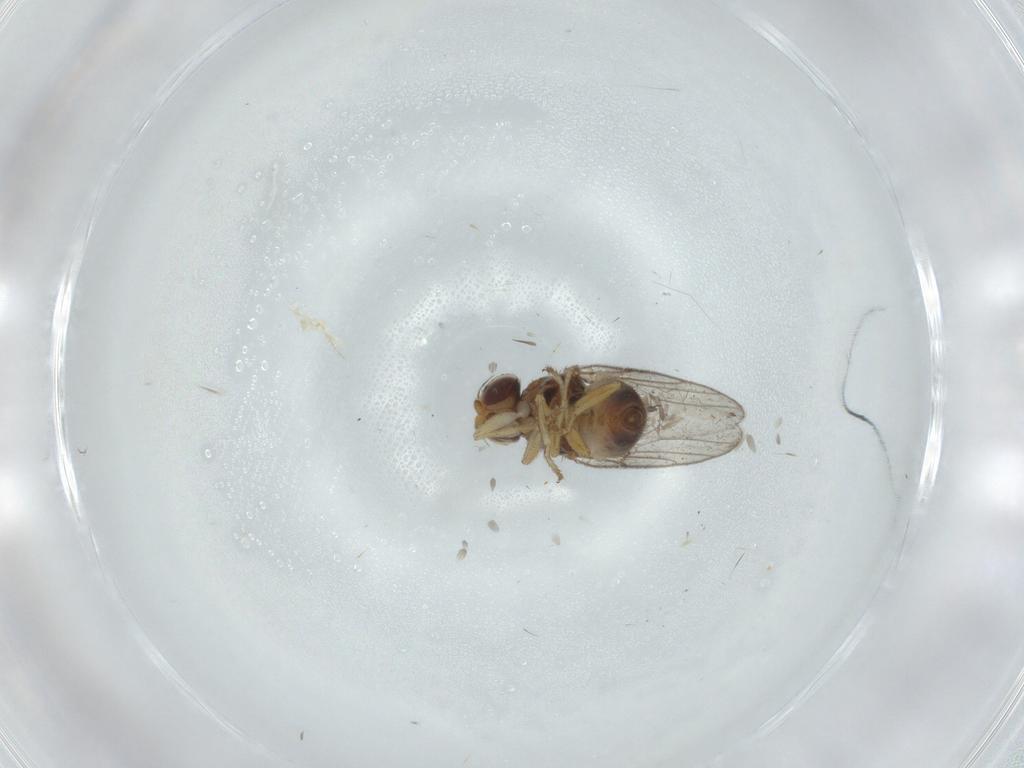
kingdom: Animalia
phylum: Arthropoda
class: Insecta
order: Diptera
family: Chloropidae
